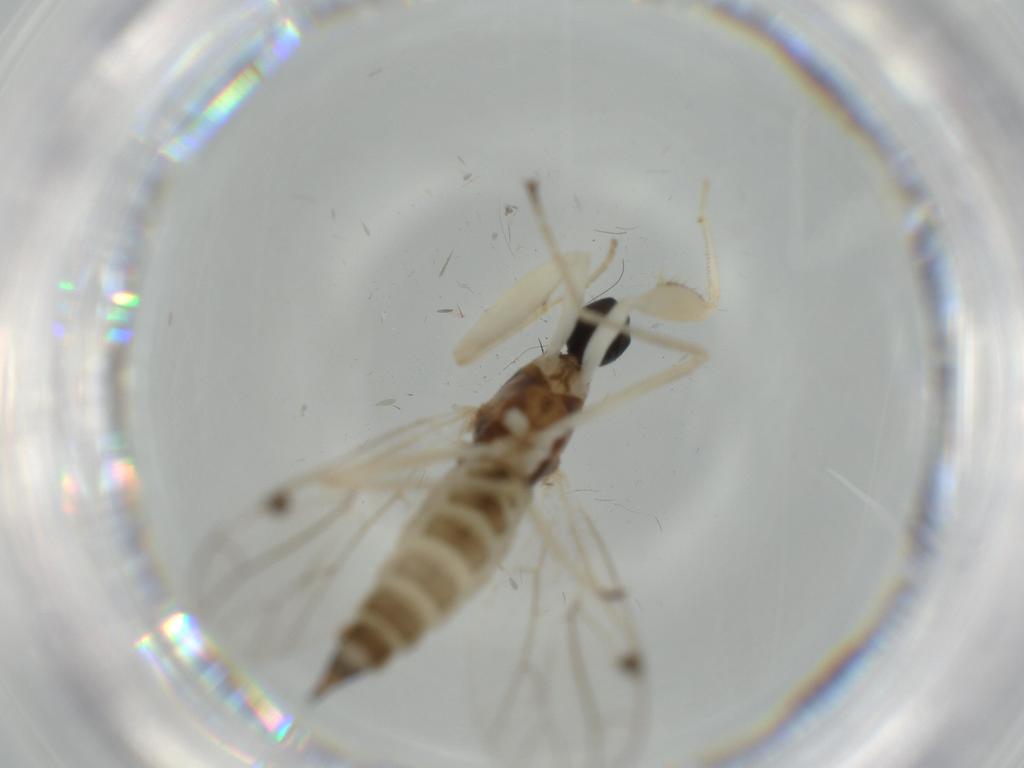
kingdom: Animalia
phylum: Arthropoda
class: Insecta
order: Diptera
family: Empididae
